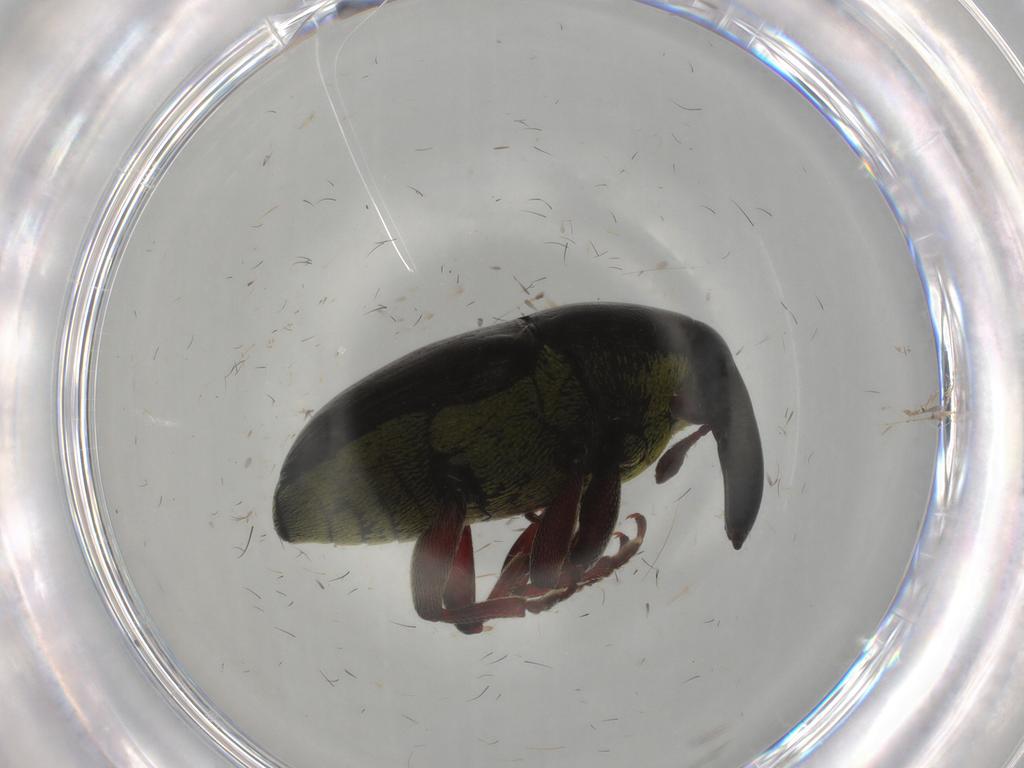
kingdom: Animalia
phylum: Arthropoda
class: Insecta
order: Coleoptera
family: Curculionidae
